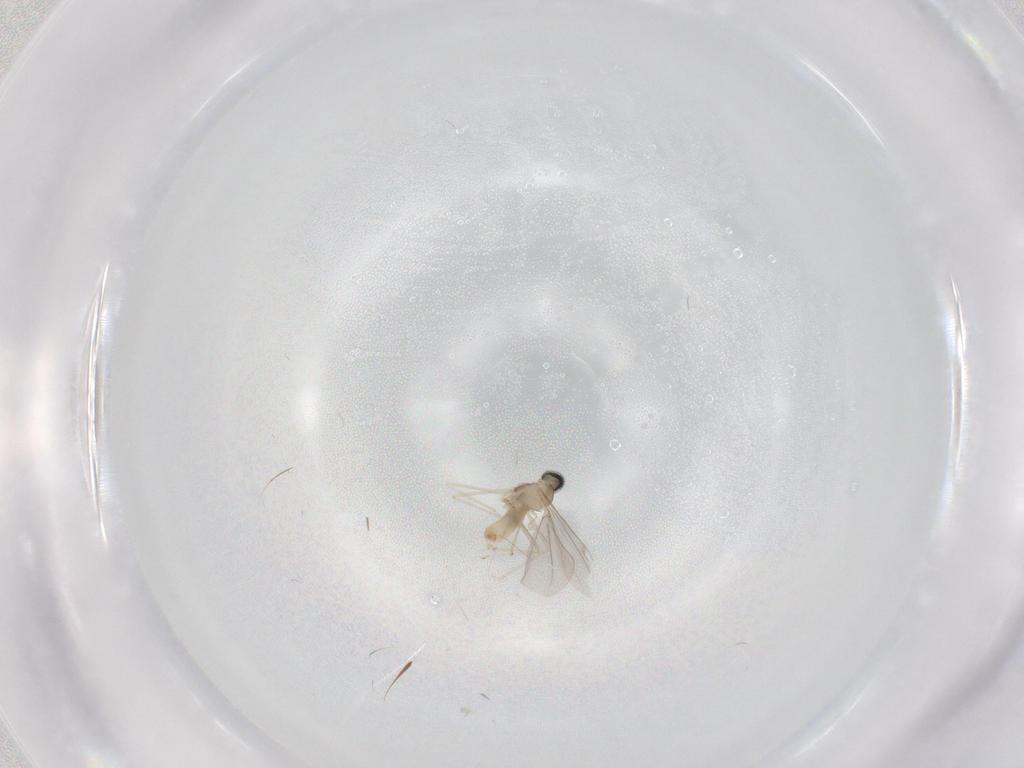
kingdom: Animalia
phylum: Arthropoda
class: Insecta
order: Diptera
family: Cecidomyiidae
